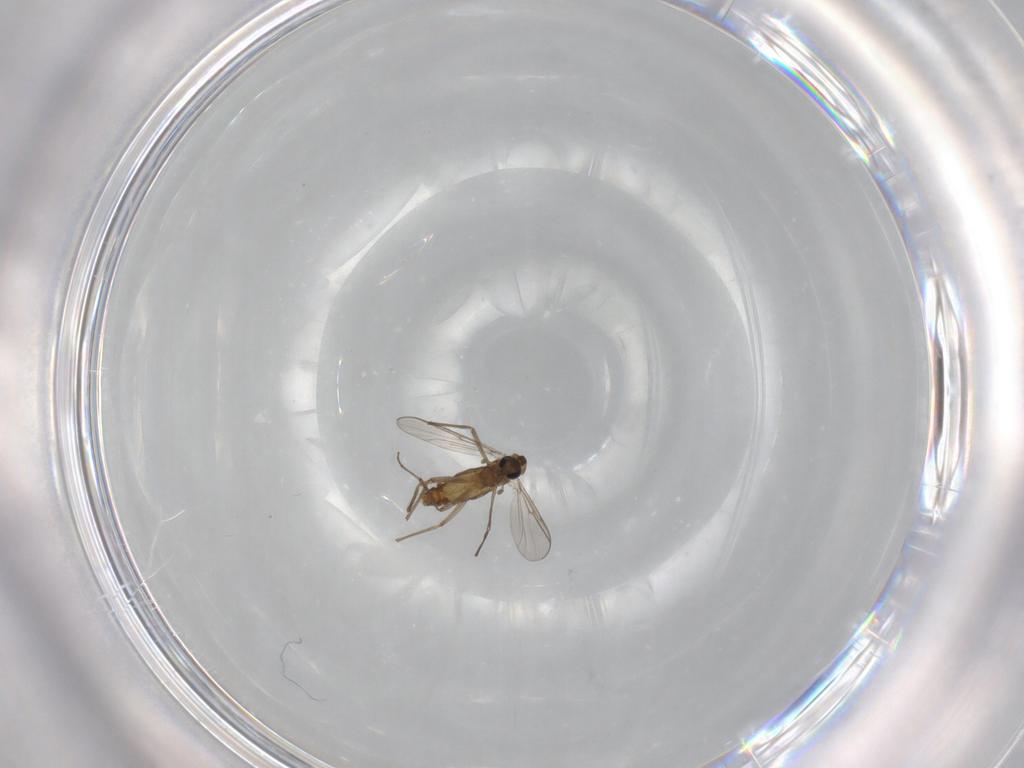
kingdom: Animalia
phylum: Arthropoda
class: Insecta
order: Diptera
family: Chironomidae
